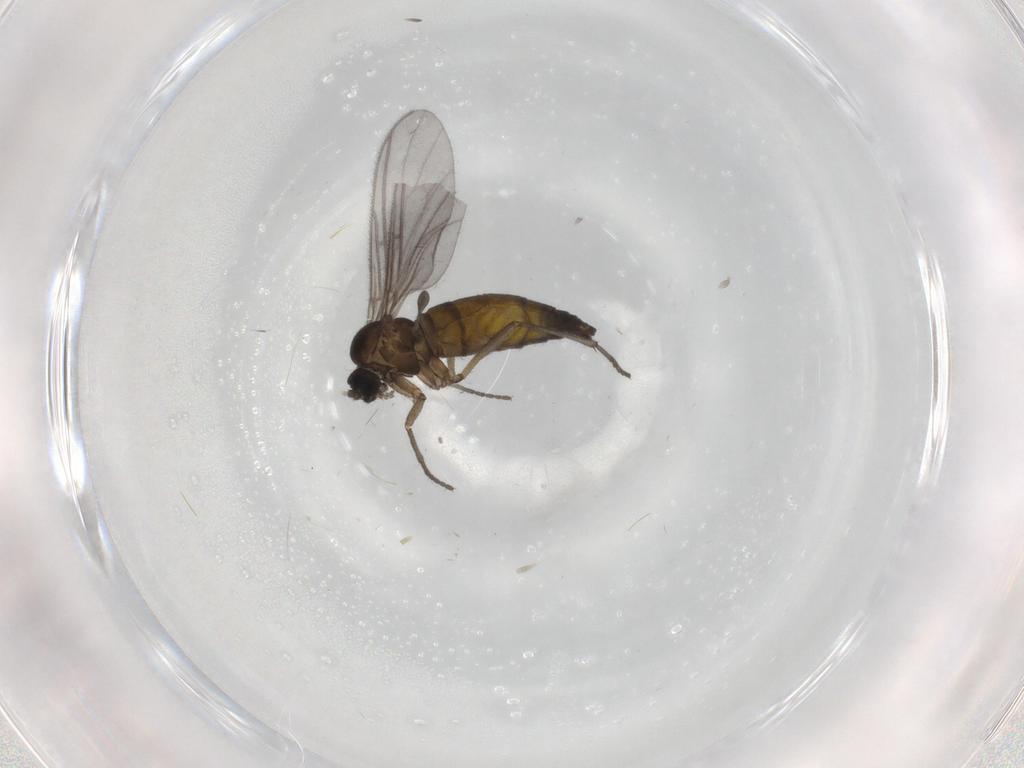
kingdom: Animalia
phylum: Arthropoda
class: Insecta
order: Diptera
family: Sciaridae
